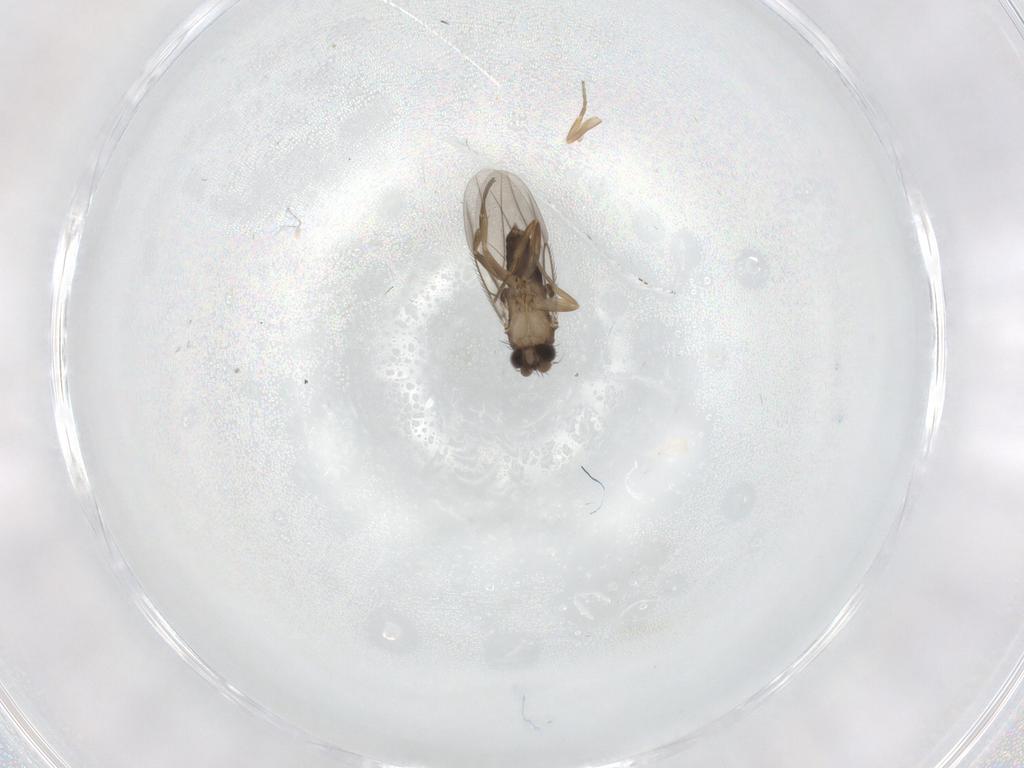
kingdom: Animalia
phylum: Arthropoda
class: Insecta
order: Diptera
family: Phoridae
